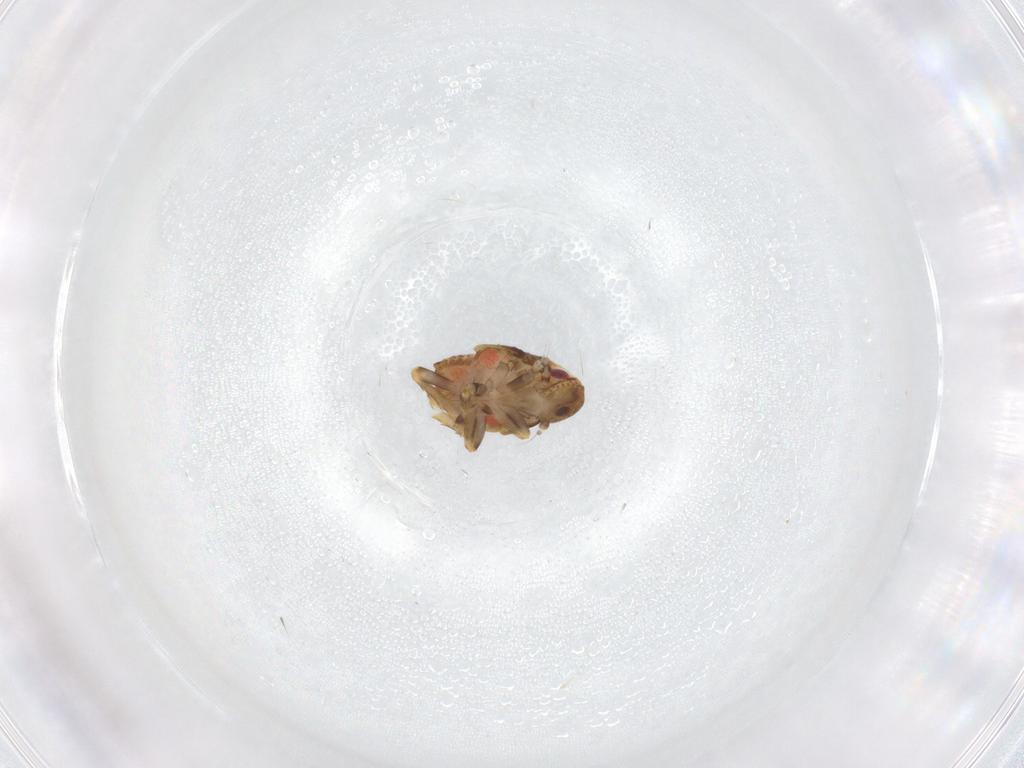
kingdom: Animalia
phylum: Arthropoda
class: Insecta
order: Hemiptera
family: Flatidae
